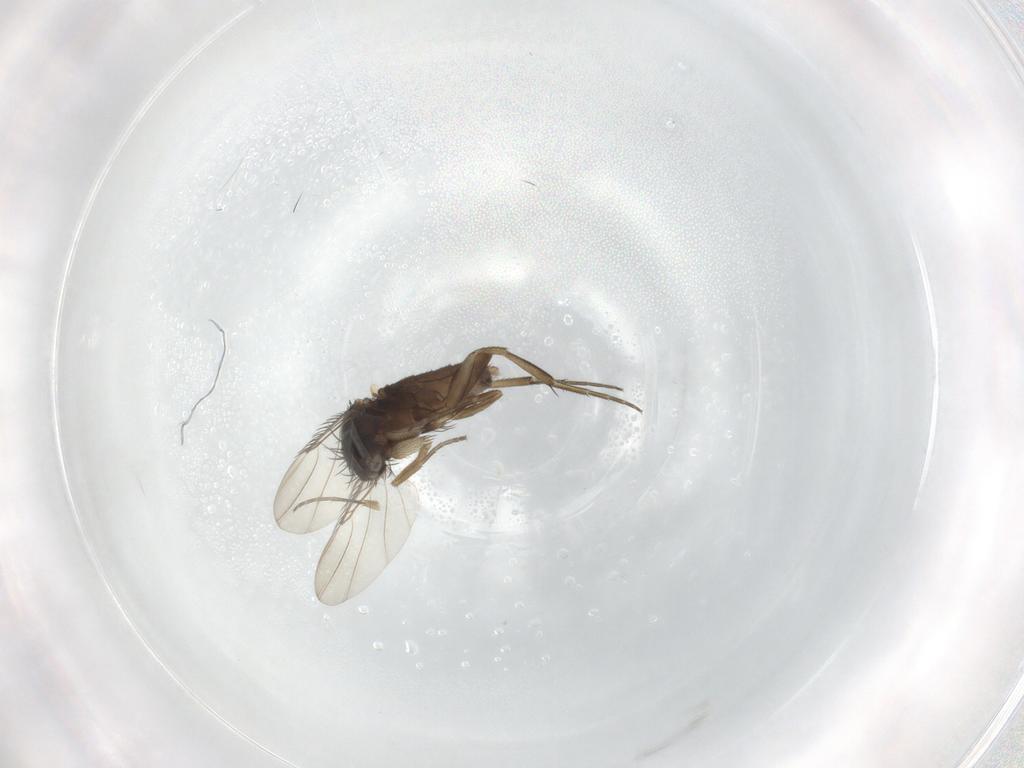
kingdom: Animalia
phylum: Arthropoda
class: Insecta
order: Diptera
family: Phoridae
